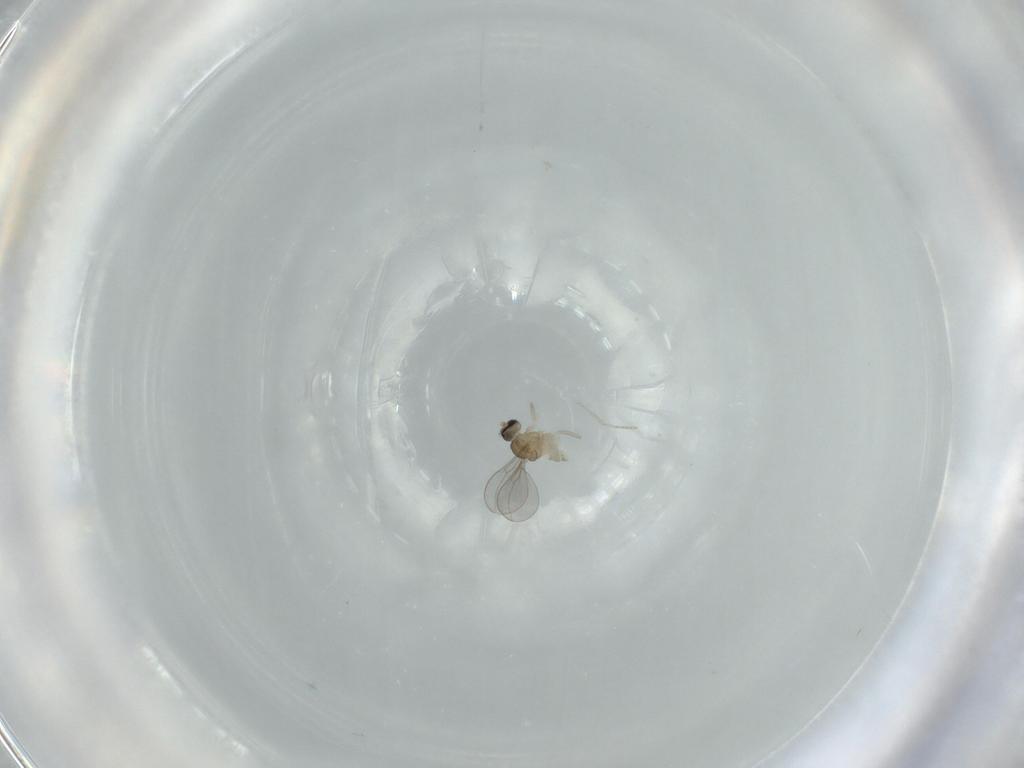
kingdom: Animalia
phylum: Arthropoda
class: Insecta
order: Diptera
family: Cecidomyiidae
